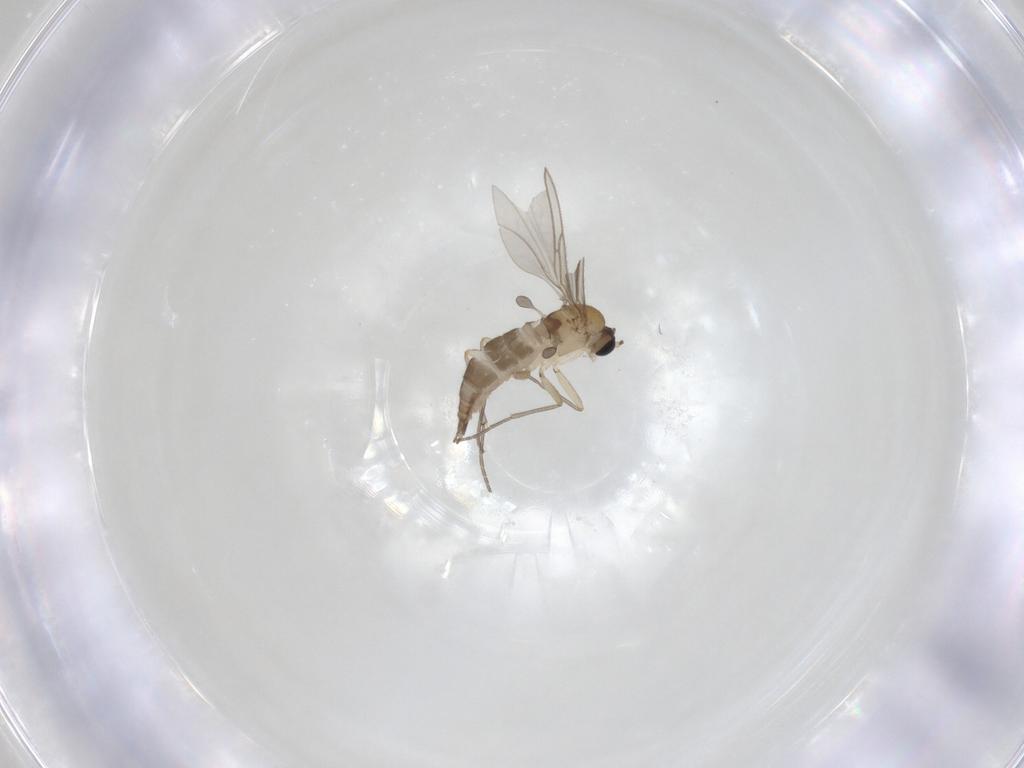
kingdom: Animalia
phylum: Arthropoda
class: Insecta
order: Diptera
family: Sciaridae
